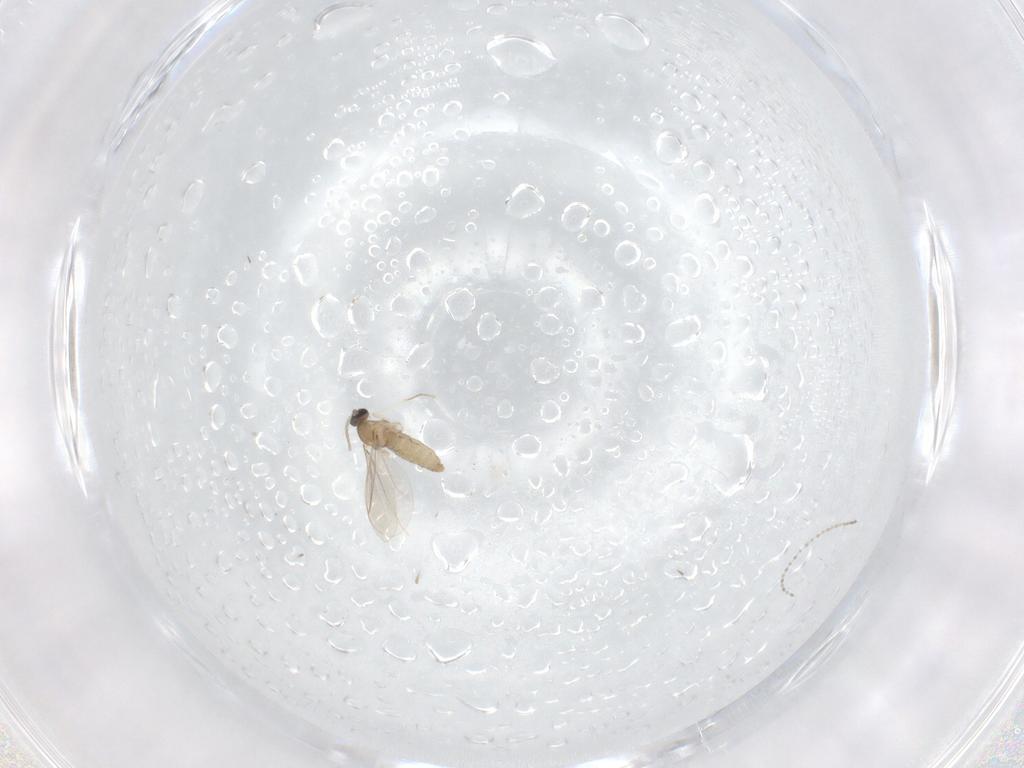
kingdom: Animalia
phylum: Arthropoda
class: Insecta
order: Diptera
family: Cecidomyiidae
